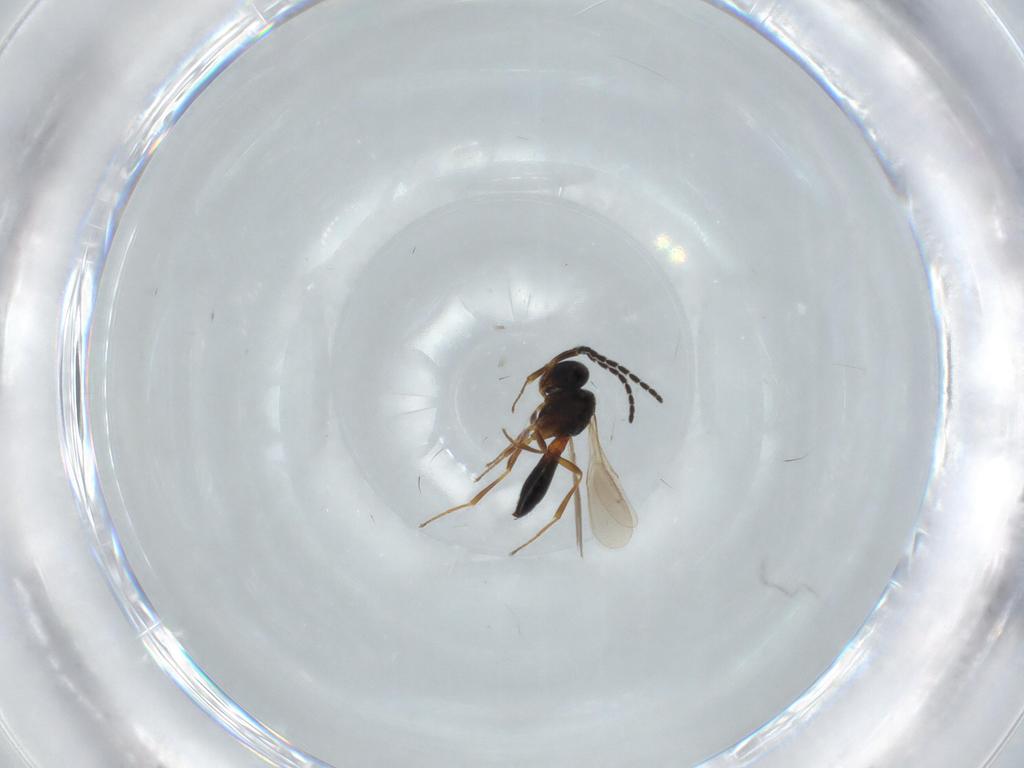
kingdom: Animalia
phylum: Arthropoda
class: Insecta
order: Hymenoptera
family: Scelionidae
